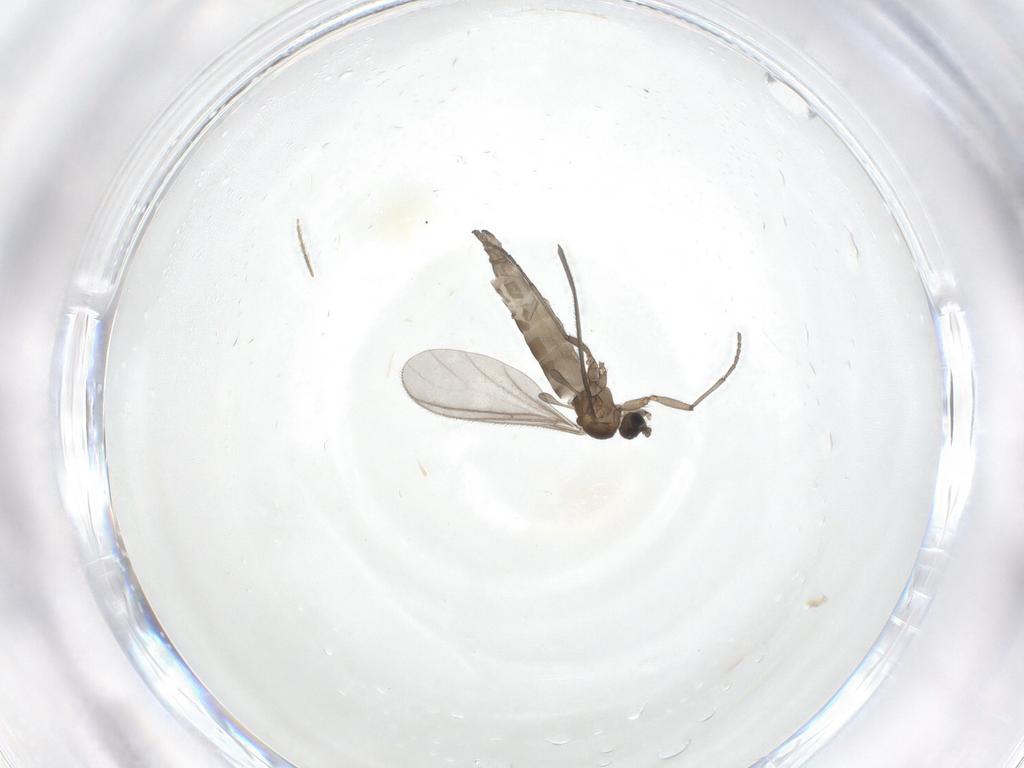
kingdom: Animalia
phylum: Arthropoda
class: Insecta
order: Diptera
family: Sciaridae
